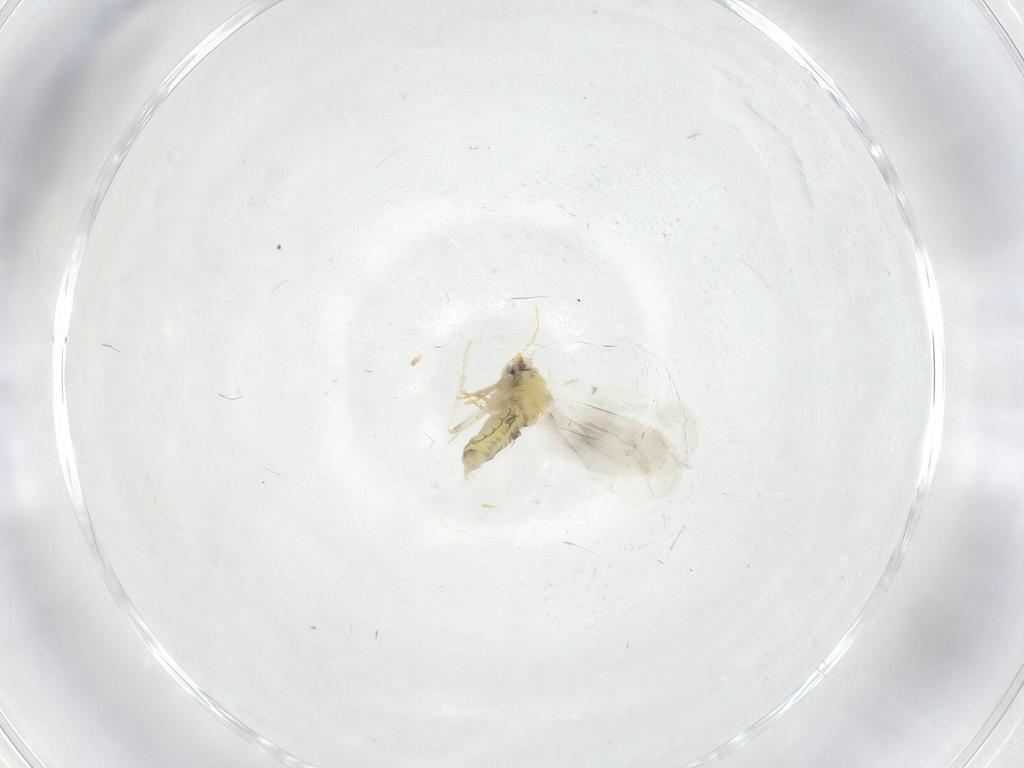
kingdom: Animalia
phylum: Arthropoda
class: Insecta
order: Hemiptera
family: Aleyrodidae
